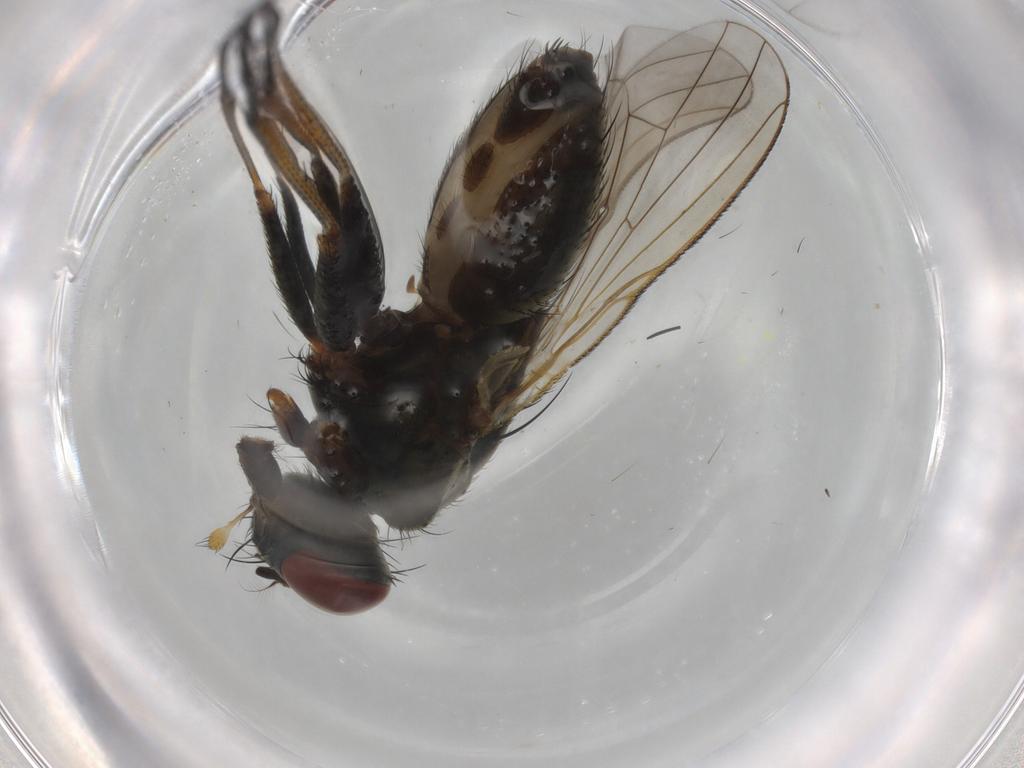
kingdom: Animalia
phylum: Arthropoda
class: Insecta
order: Diptera
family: Muscidae
